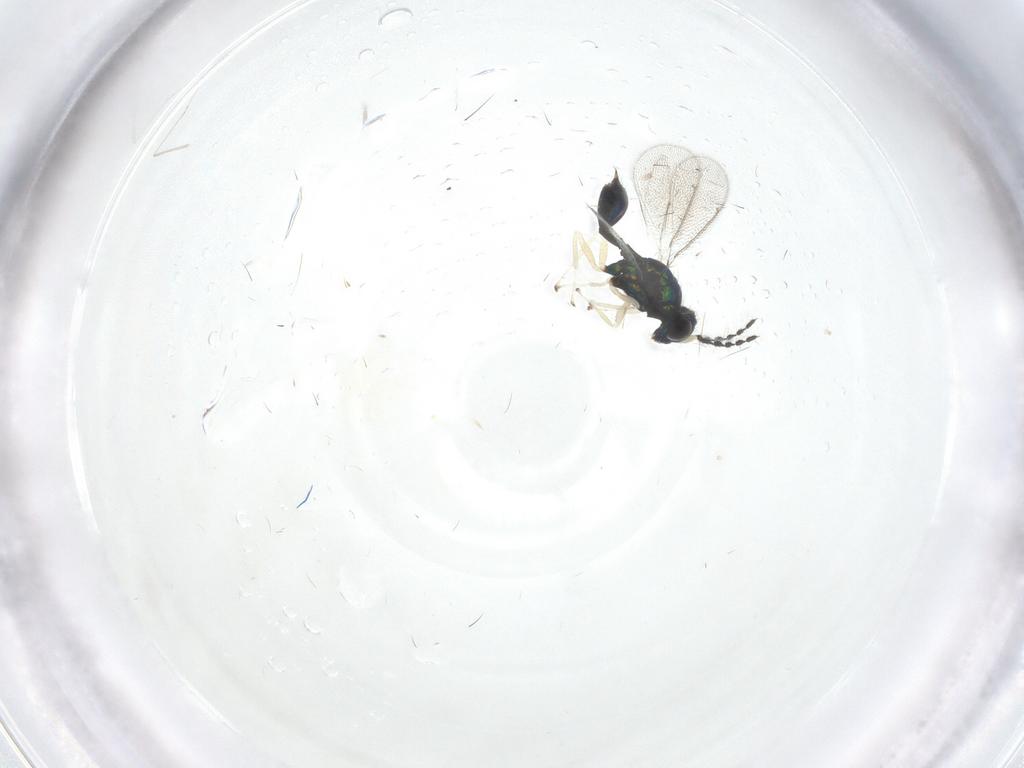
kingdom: Animalia
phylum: Arthropoda
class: Insecta
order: Hymenoptera
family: Eulophidae
